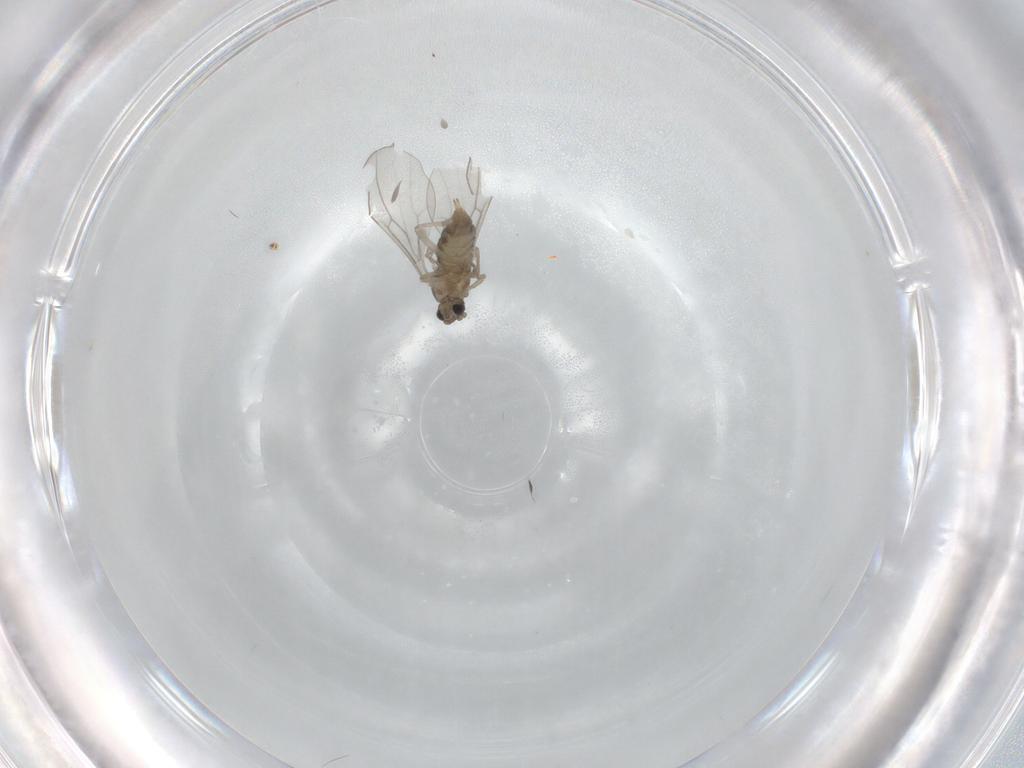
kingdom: Animalia
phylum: Arthropoda
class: Insecta
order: Diptera
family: Cecidomyiidae
